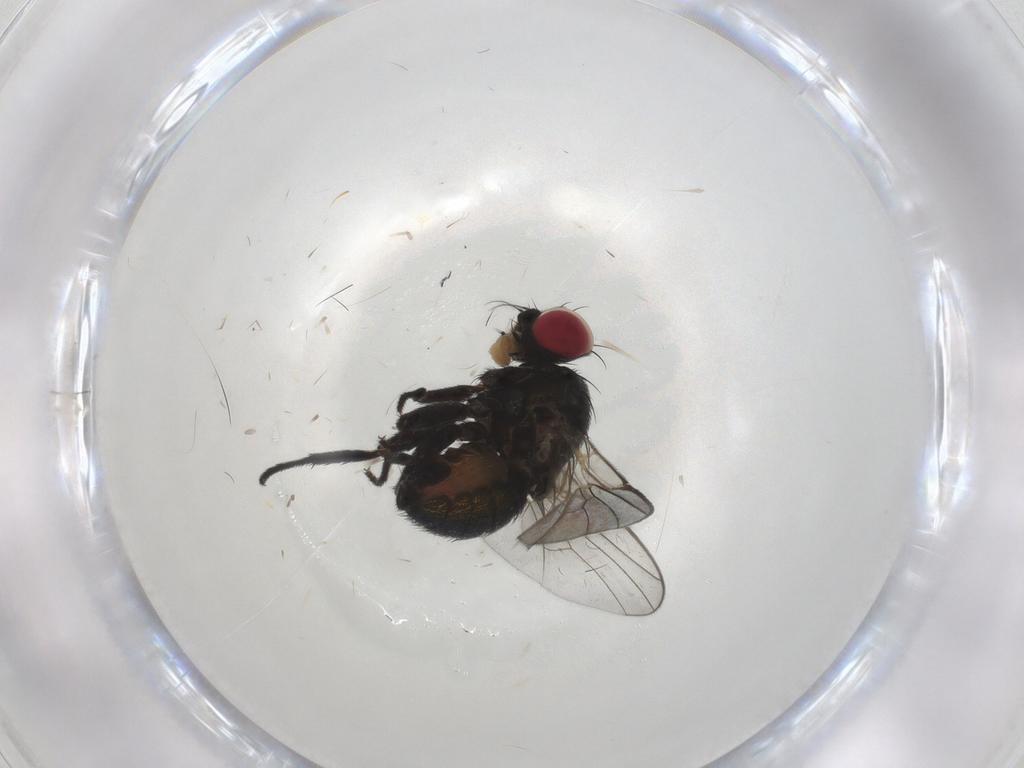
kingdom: Animalia
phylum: Arthropoda
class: Insecta
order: Diptera
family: Agromyzidae
